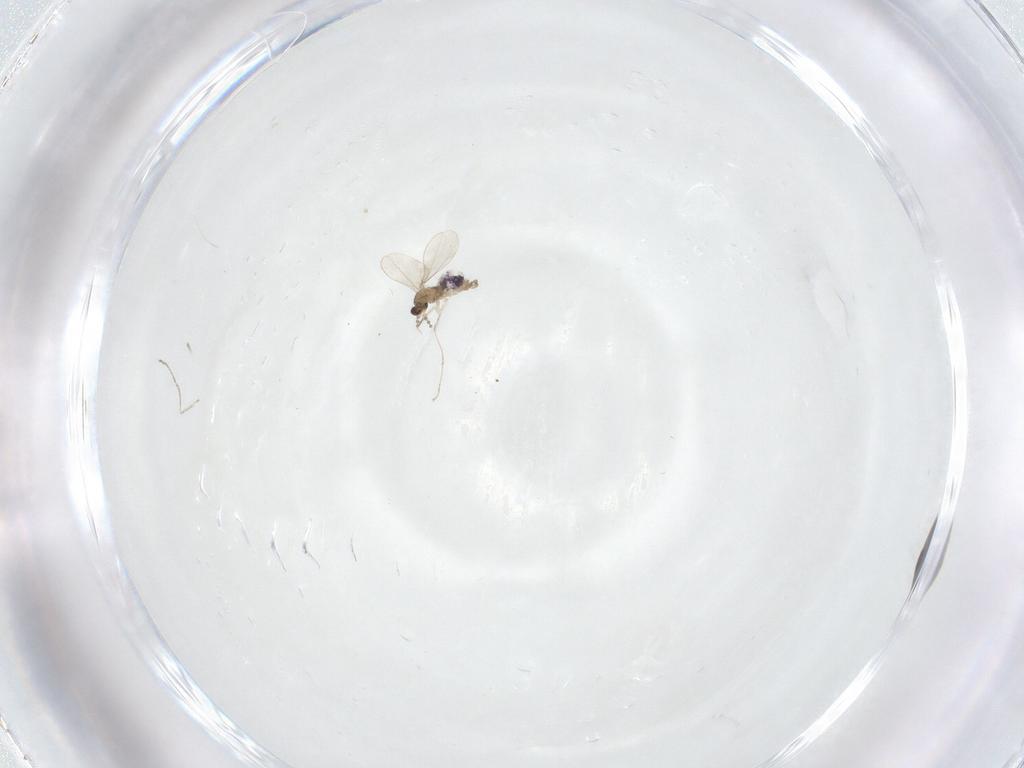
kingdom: Animalia
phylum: Arthropoda
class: Insecta
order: Diptera
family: Cecidomyiidae
